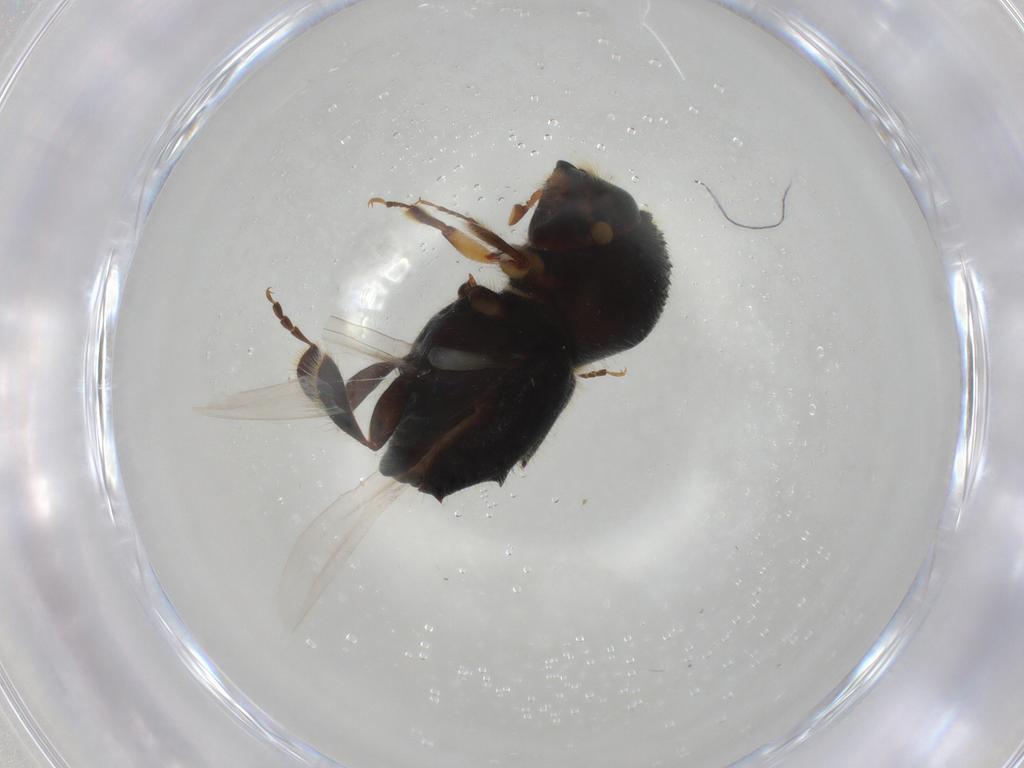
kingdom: Animalia
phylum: Arthropoda
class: Insecta
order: Coleoptera
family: Curculionidae
